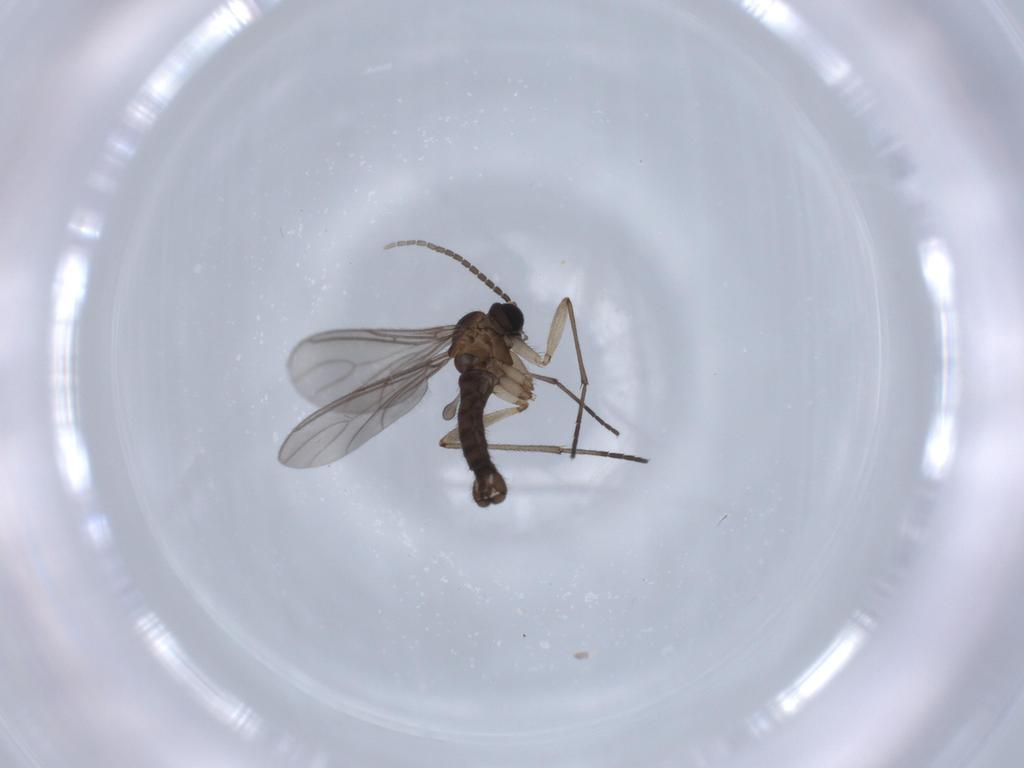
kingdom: Animalia
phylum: Arthropoda
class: Insecta
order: Diptera
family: Sciaridae
